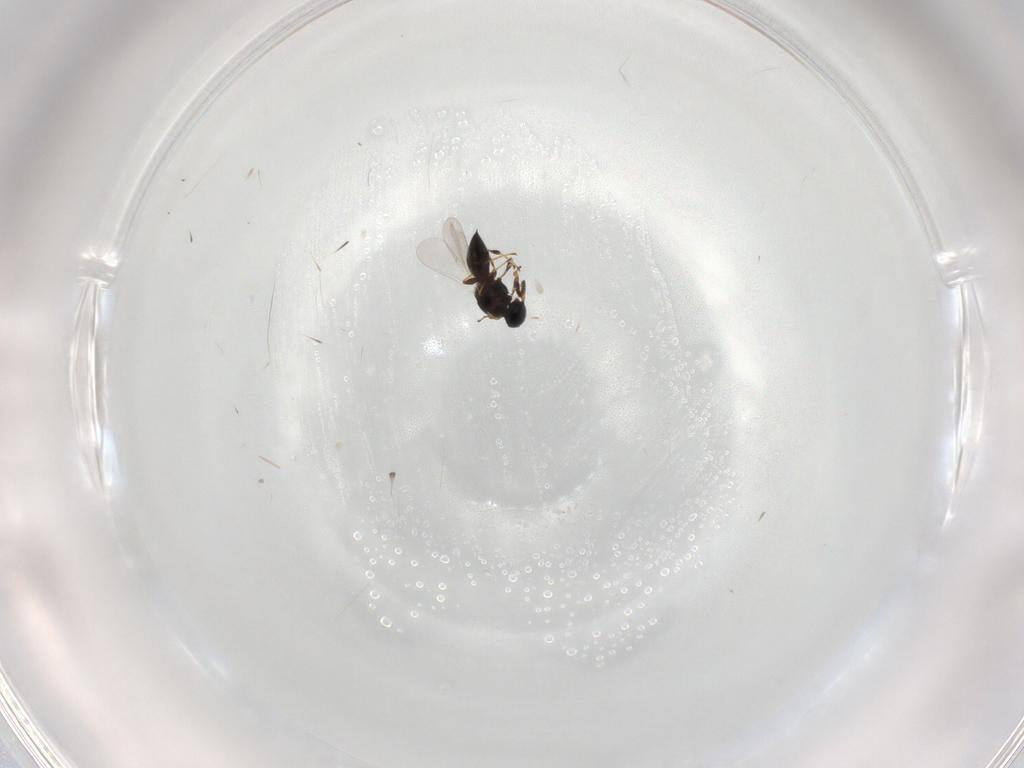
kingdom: Animalia
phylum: Arthropoda
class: Insecta
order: Hymenoptera
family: Platygastridae
